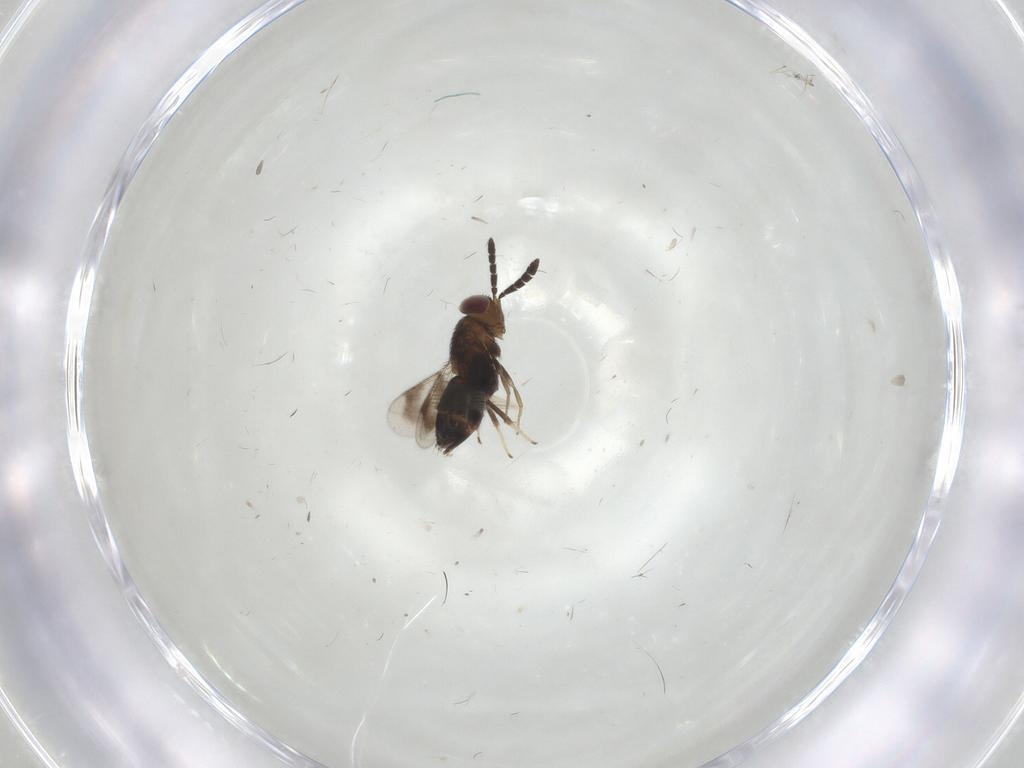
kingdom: Animalia
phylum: Arthropoda
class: Insecta
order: Hymenoptera
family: Aphelinidae
